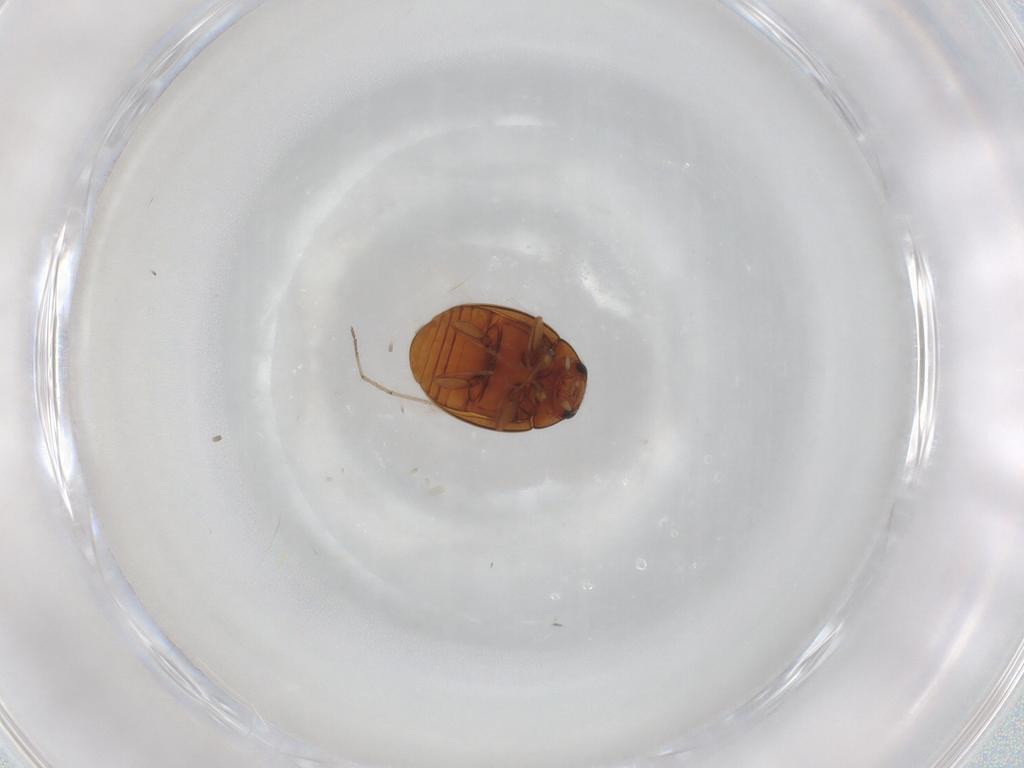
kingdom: Animalia
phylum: Arthropoda
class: Insecta
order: Coleoptera
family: Coccinellidae
